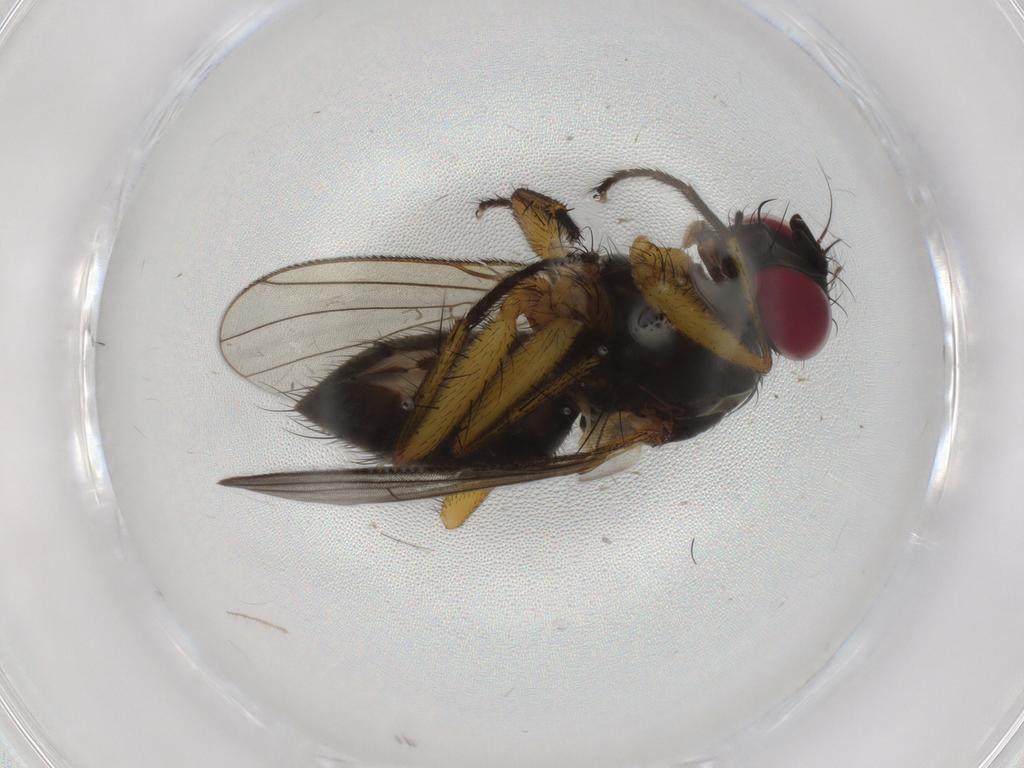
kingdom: Animalia
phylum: Arthropoda
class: Insecta
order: Diptera
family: Muscidae
